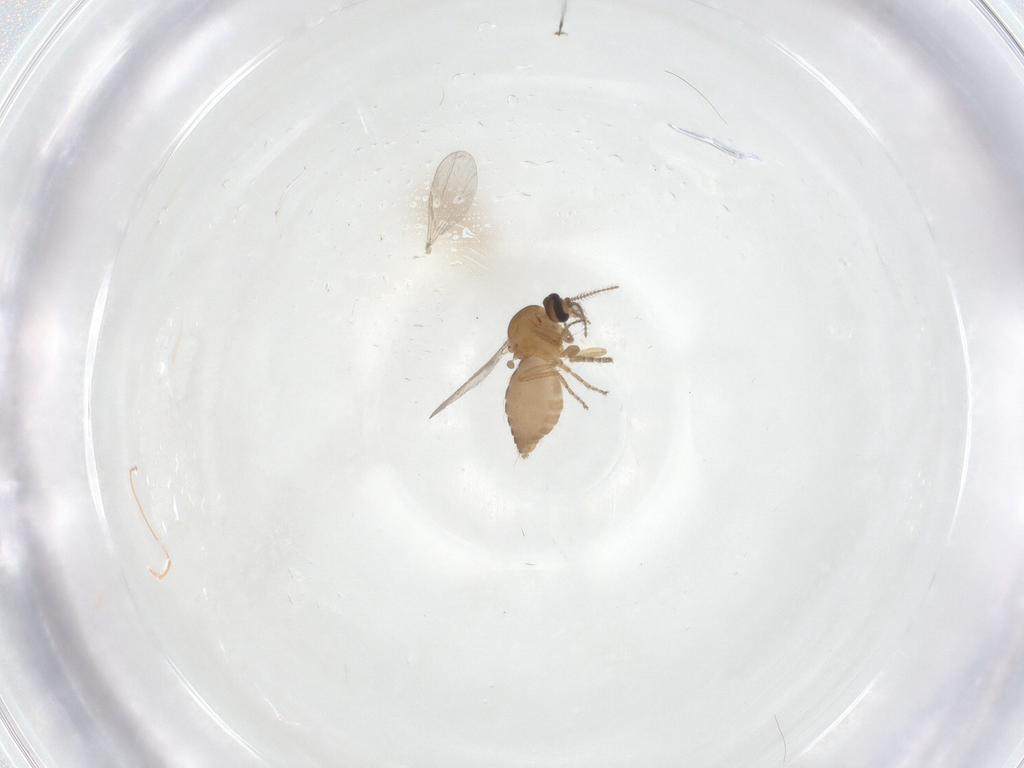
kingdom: Animalia
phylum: Arthropoda
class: Insecta
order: Diptera
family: Ceratopogonidae
